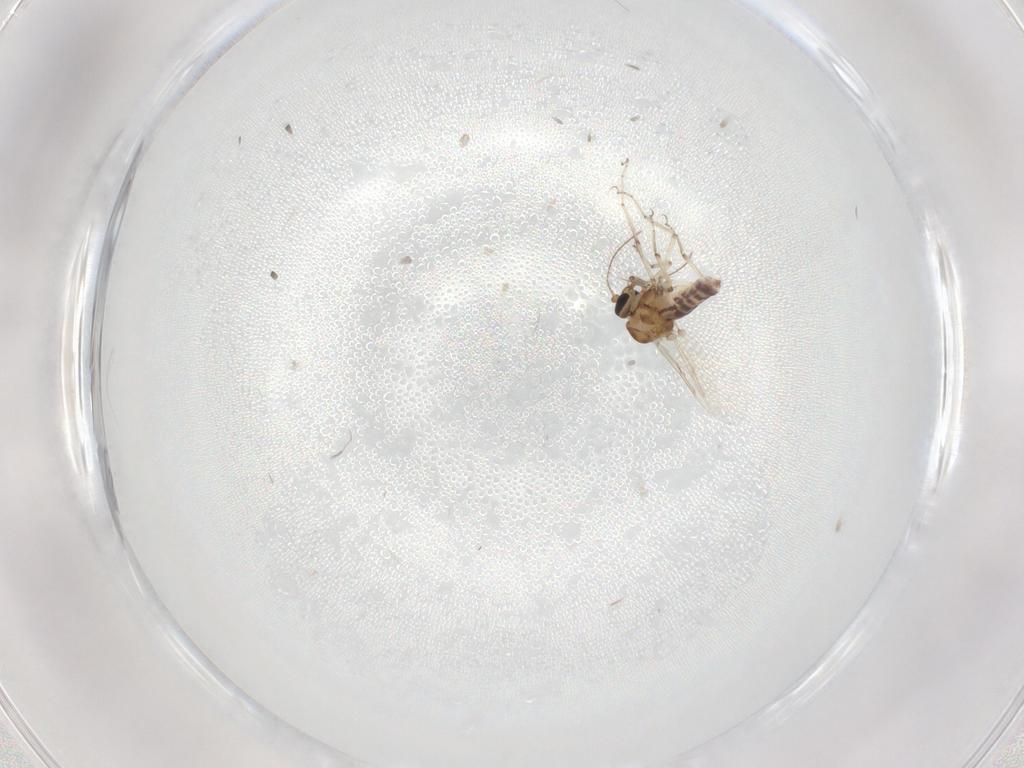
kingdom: Animalia
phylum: Arthropoda
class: Insecta
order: Diptera
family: Ceratopogonidae
